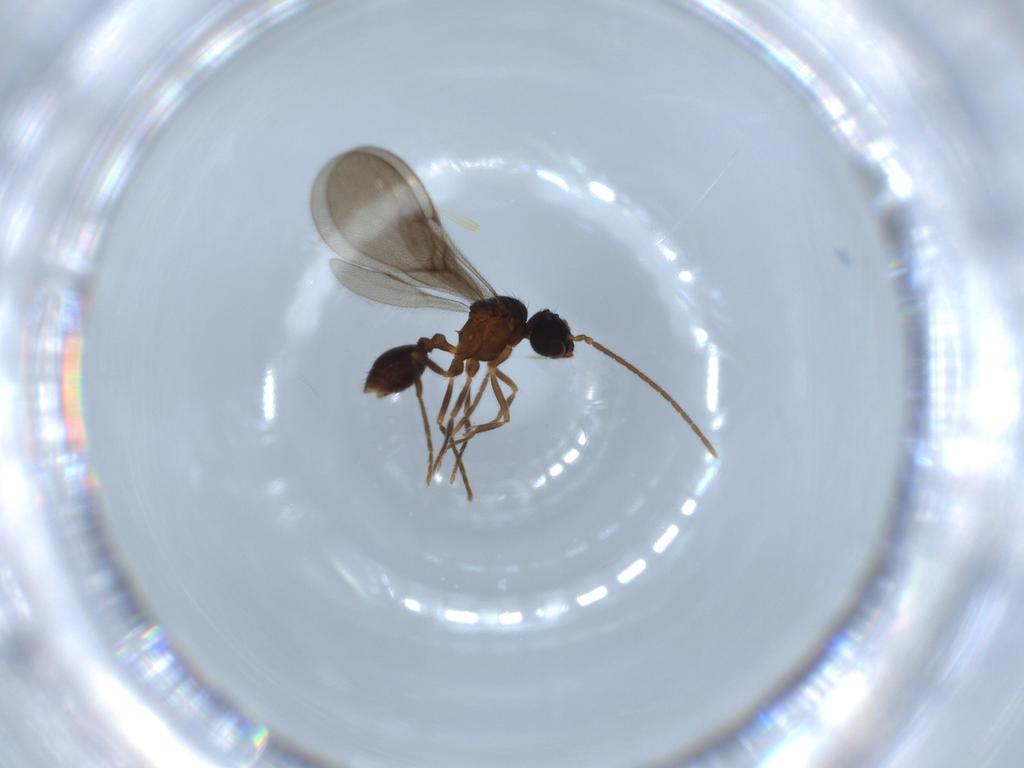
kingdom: Animalia
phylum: Arthropoda
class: Insecta
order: Hymenoptera
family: Formicidae
